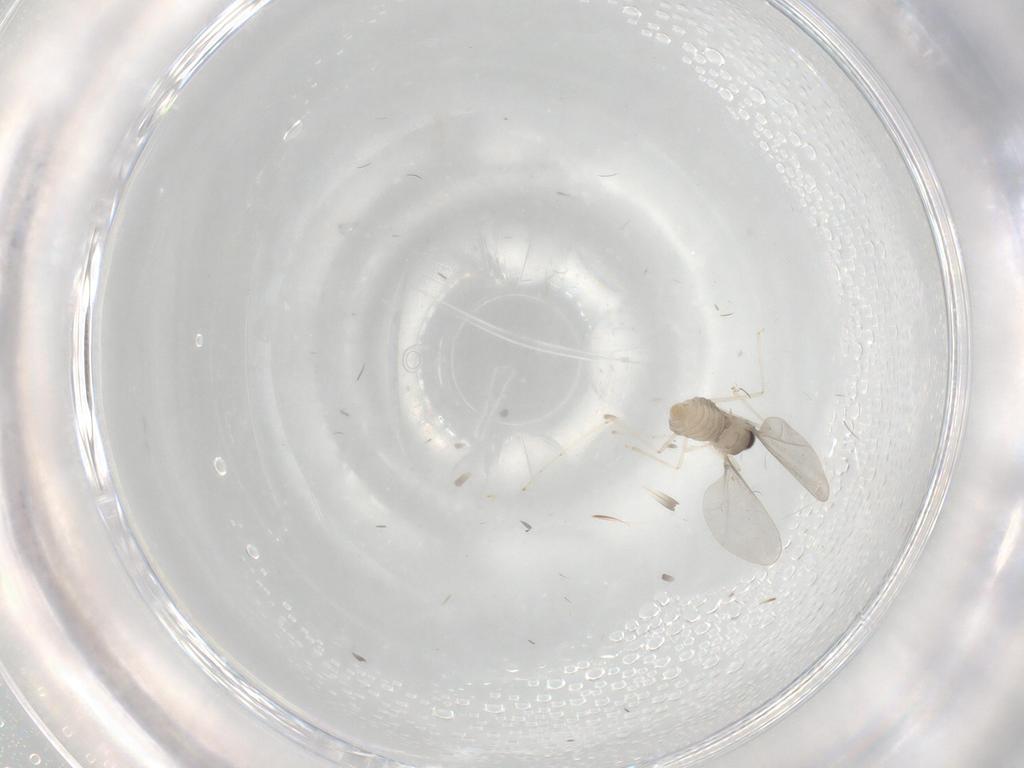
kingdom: Animalia
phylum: Arthropoda
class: Insecta
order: Diptera
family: Cecidomyiidae
